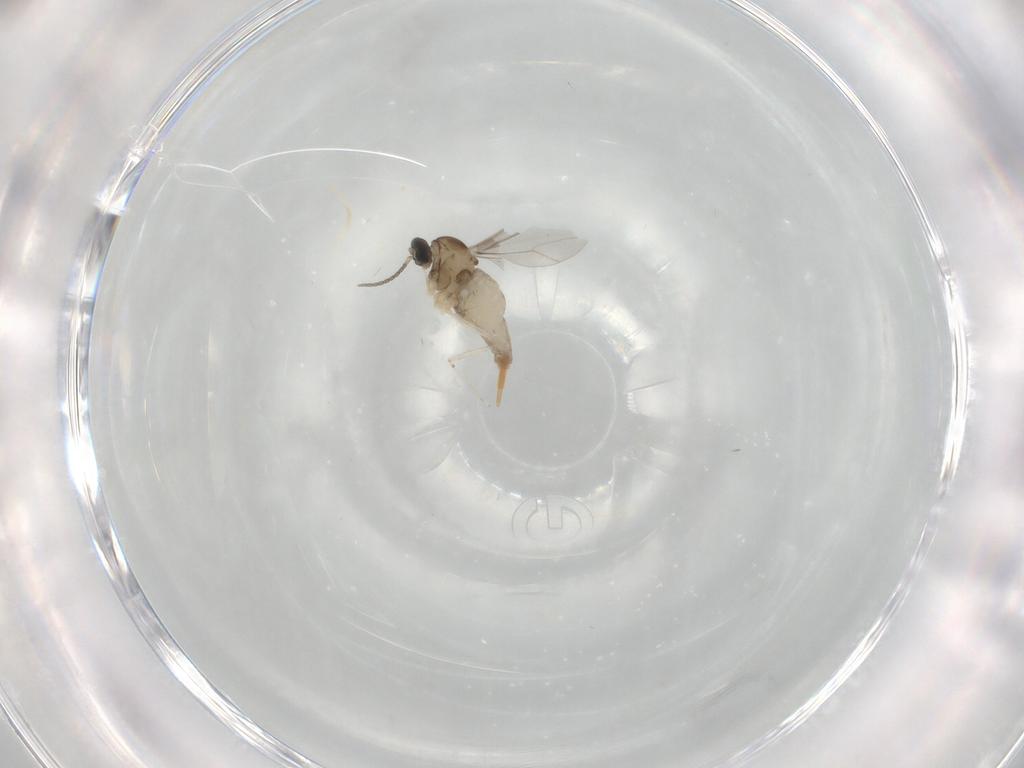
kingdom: Animalia
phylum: Arthropoda
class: Insecta
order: Diptera
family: Cecidomyiidae
